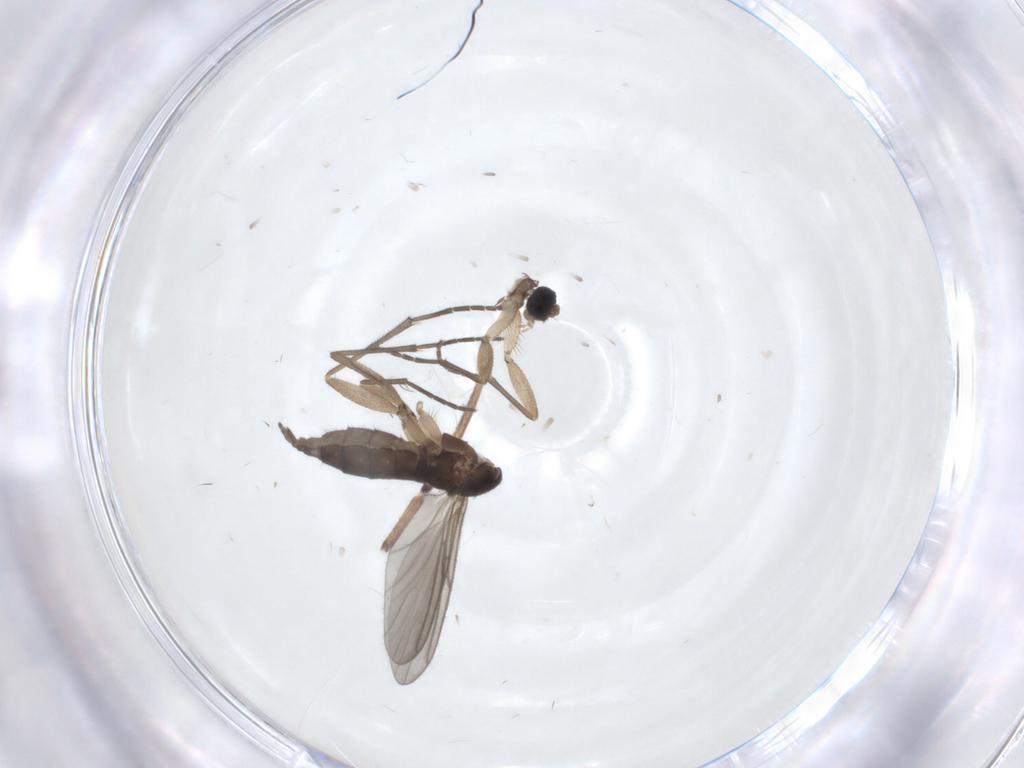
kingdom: Animalia
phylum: Arthropoda
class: Insecta
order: Diptera
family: Sciaridae
